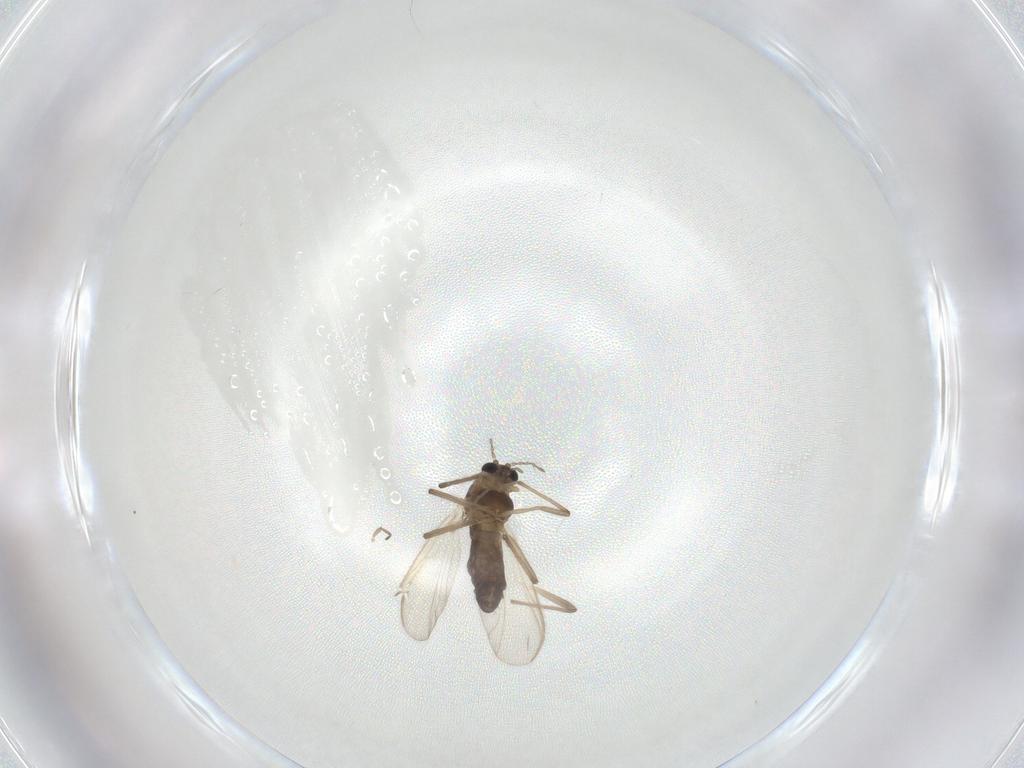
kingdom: Animalia
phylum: Arthropoda
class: Insecta
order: Diptera
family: Chironomidae
